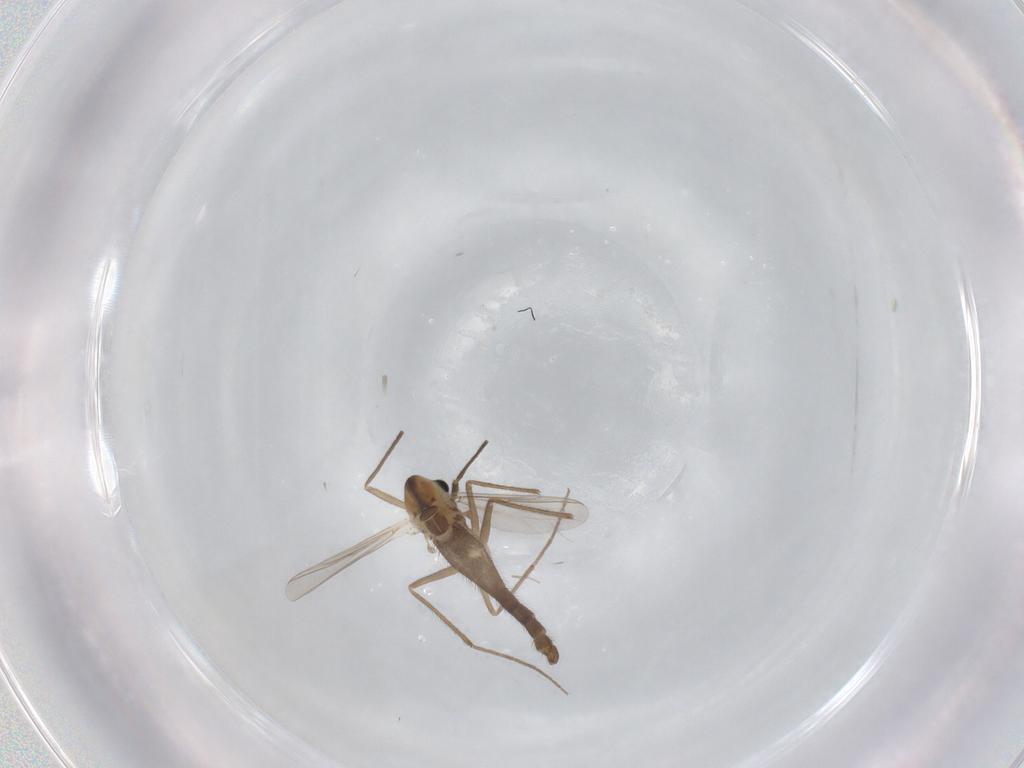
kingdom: Animalia
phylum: Arthropoda
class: Insecta
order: Diptera
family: Chironomidae
